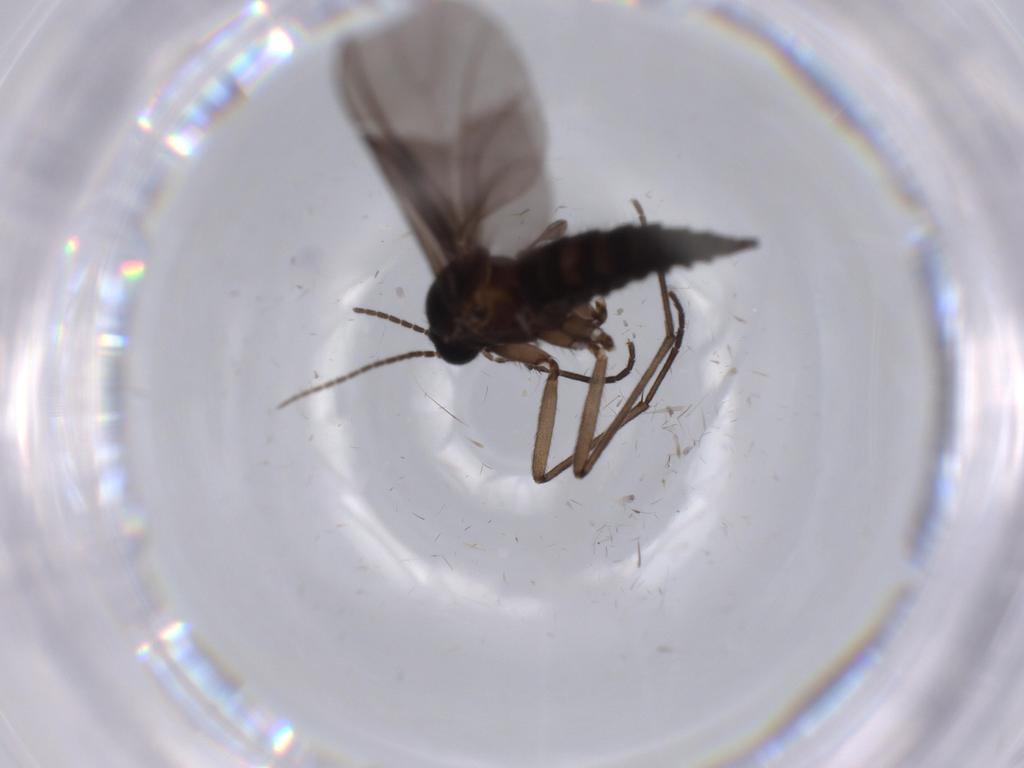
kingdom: Animalia
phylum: Arthropoda
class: Insecta
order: Diptera
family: Sciaridae
